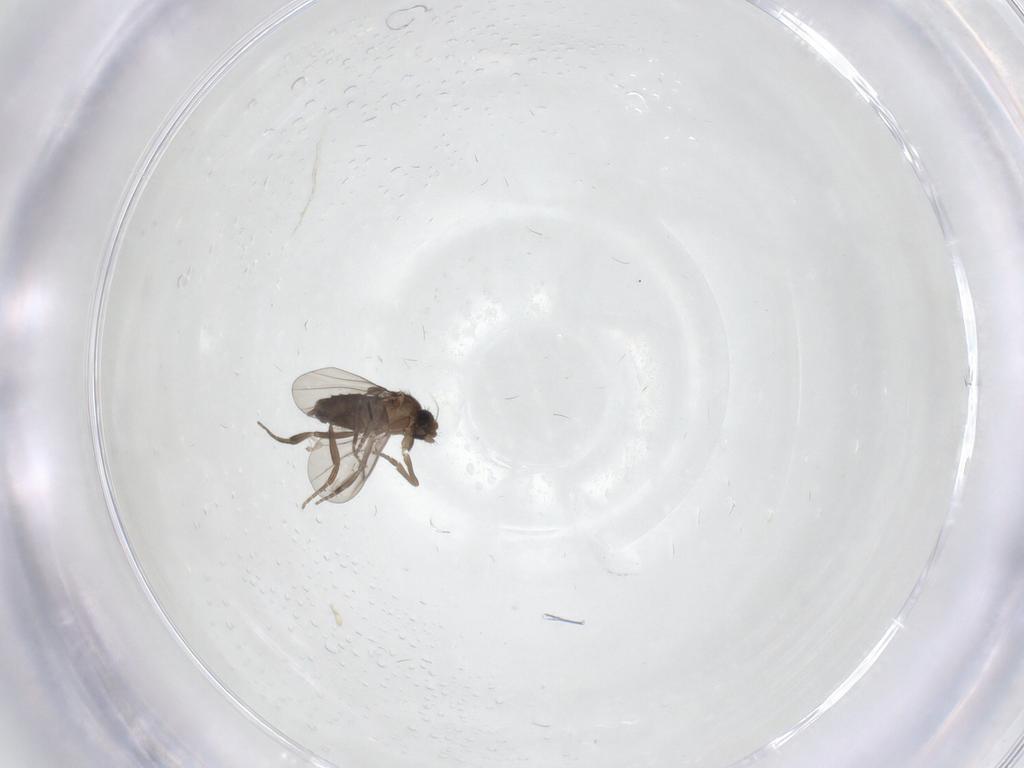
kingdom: Animalia
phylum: Arthropoda
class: Insecta
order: Diptera
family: Phoridae
